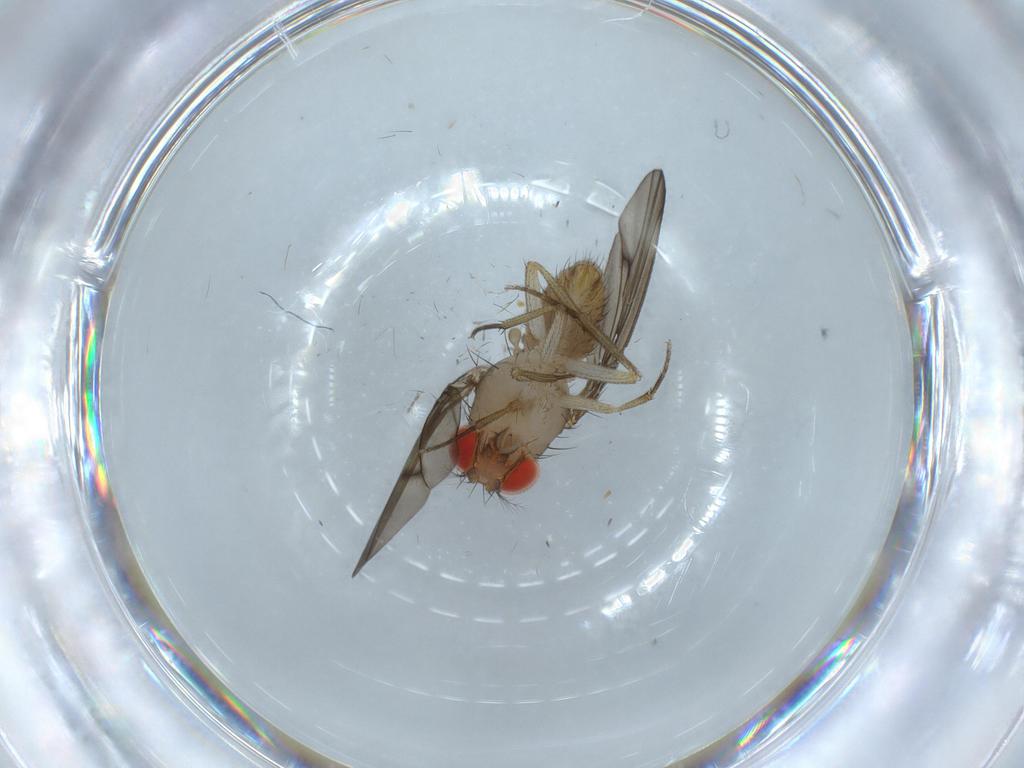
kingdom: Animalia
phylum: Arthropoda
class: Insecta
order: Diptera
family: Drosophilidae
